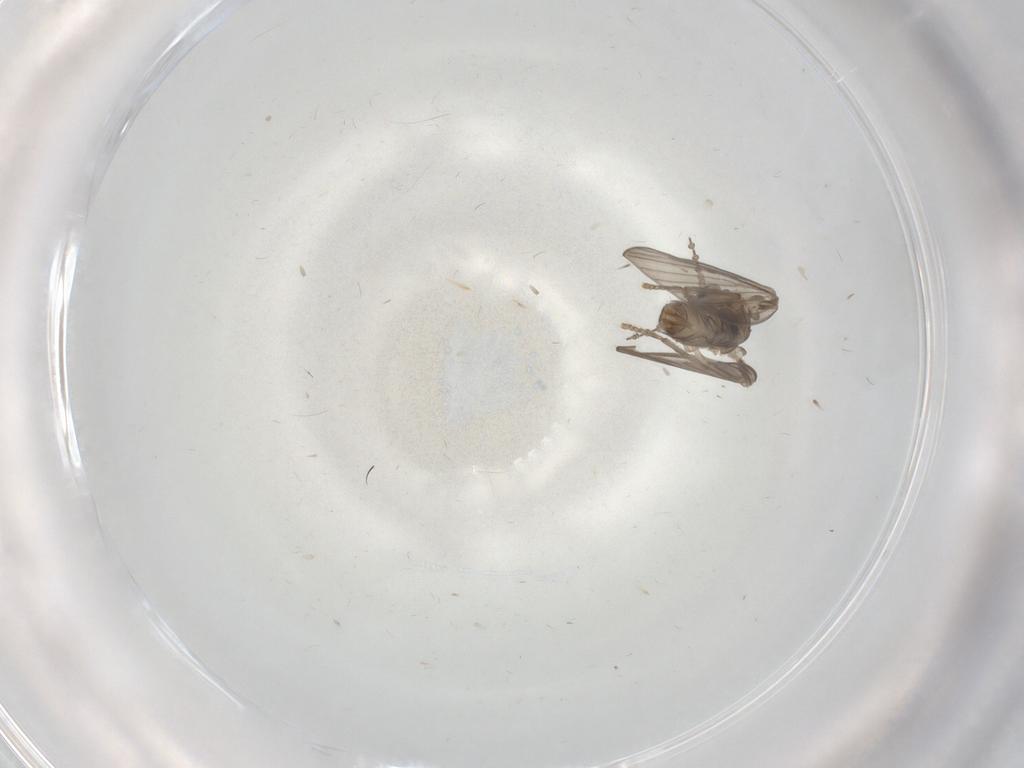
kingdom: Animalia
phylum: Arthropoda
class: Insecta
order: Diptera
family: Psychodidae
